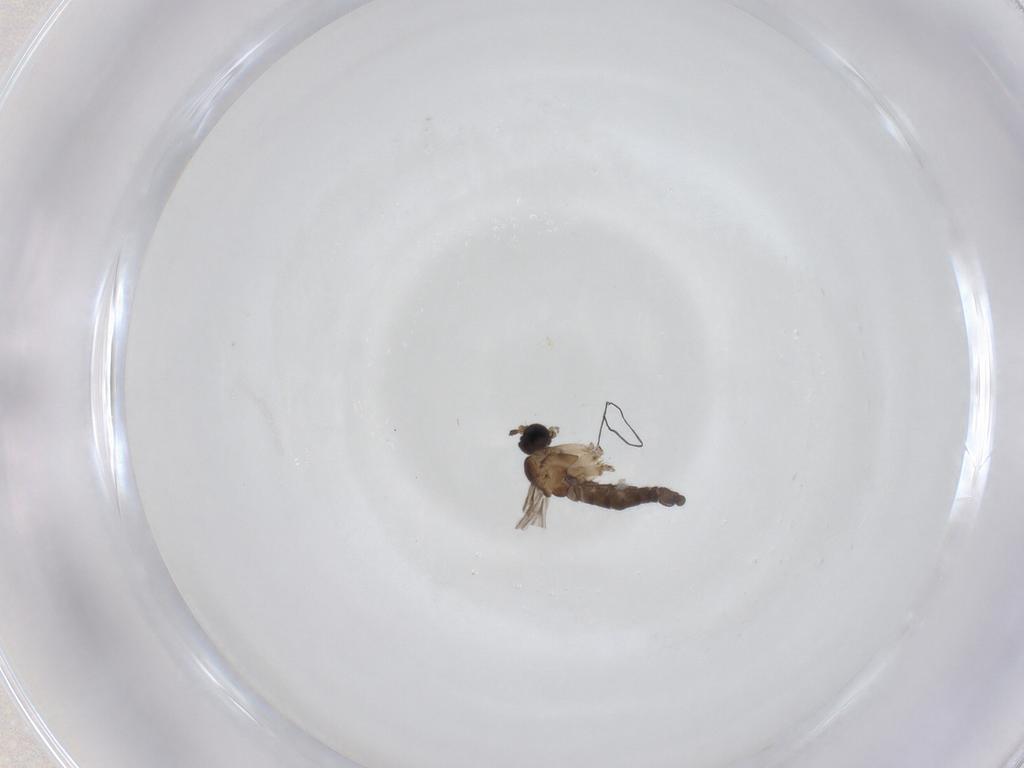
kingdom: Animalia
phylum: Arthropoda
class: Insecta
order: Diptera
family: Sciaridae
